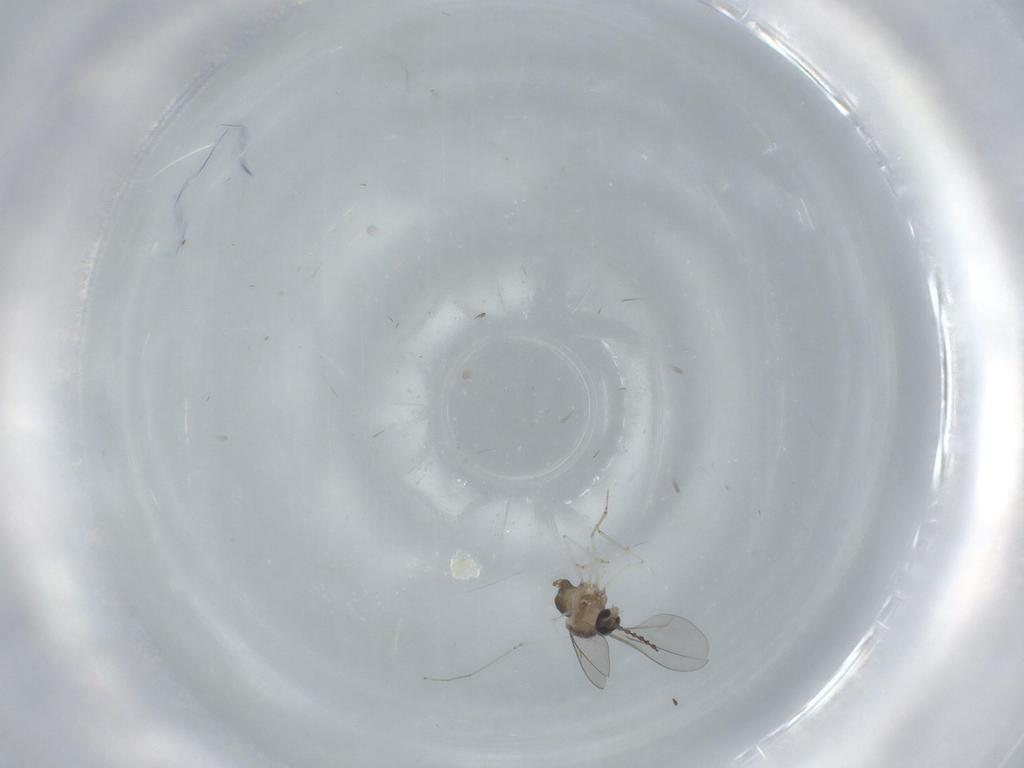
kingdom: Animalia
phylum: Arthropoda
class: Insecta
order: Diptera
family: Cecidomyiidae
